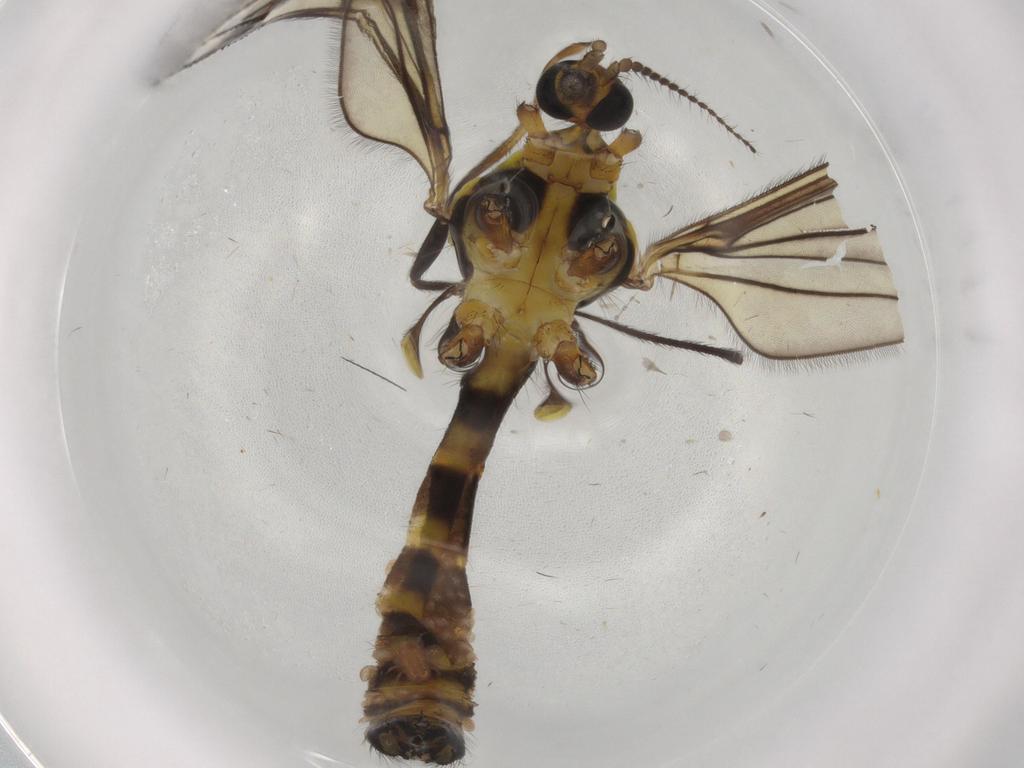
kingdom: Animalia
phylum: Arthropoda
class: Insecta
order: Diptera
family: Limoniidae
